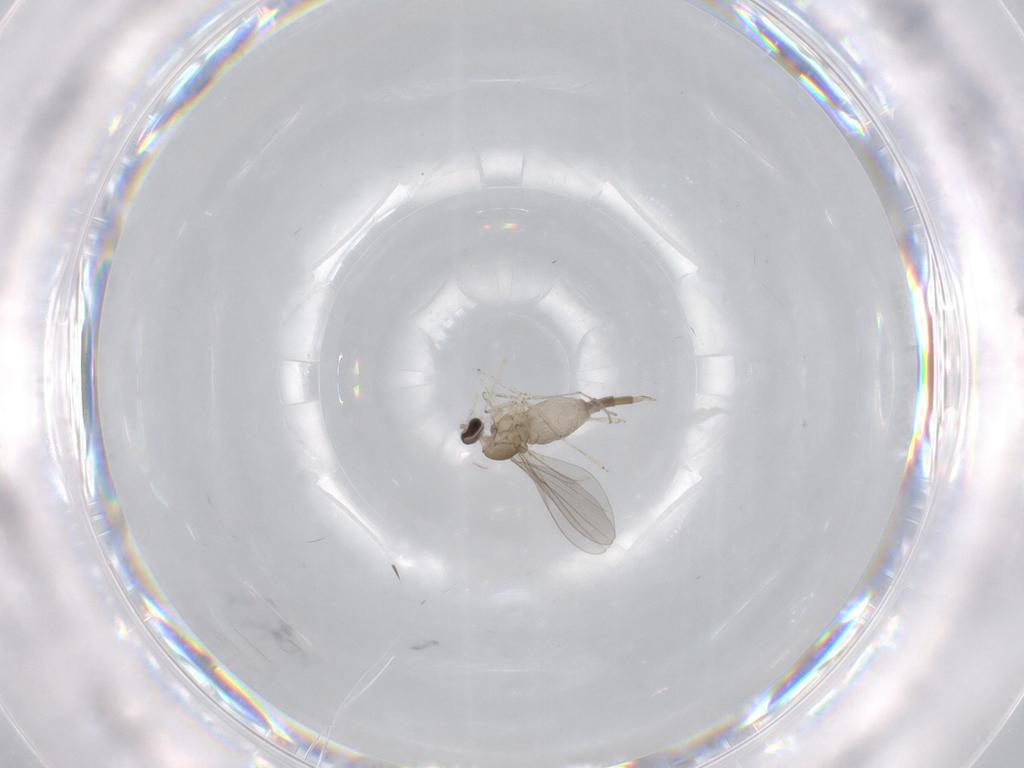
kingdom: Animalia
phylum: Arthropoda
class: Insecta
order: Diptera
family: Cecidomyiidae
